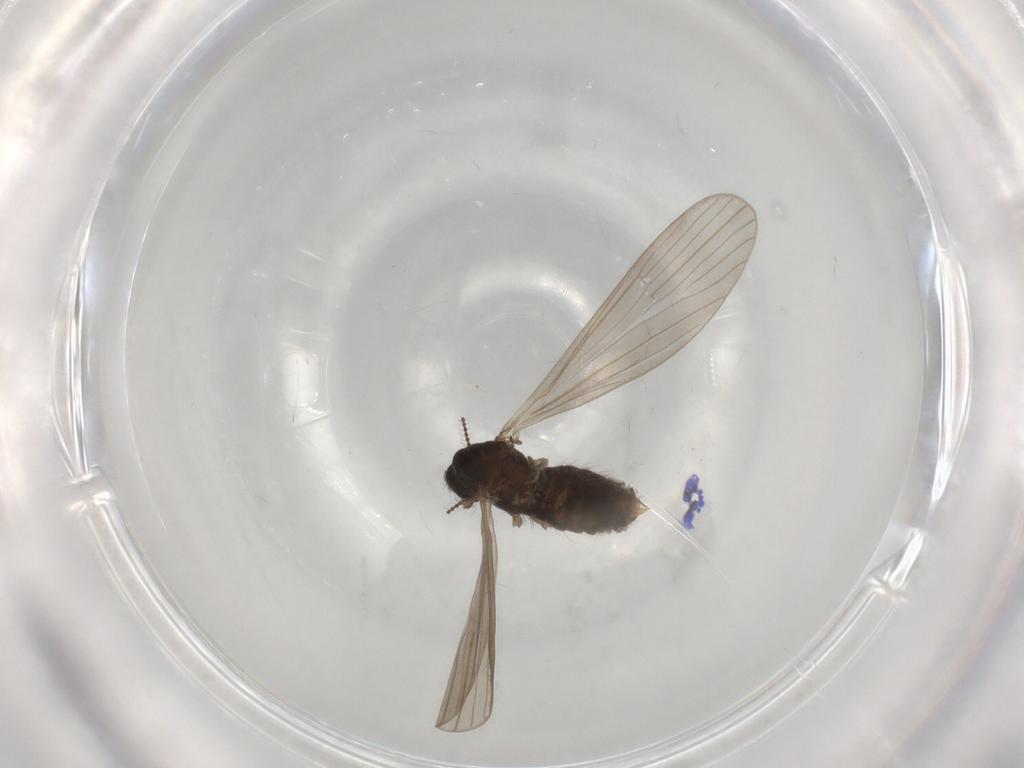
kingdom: Animalia
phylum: Arthropoda
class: Insecta
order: Diptera
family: Limoniidae
